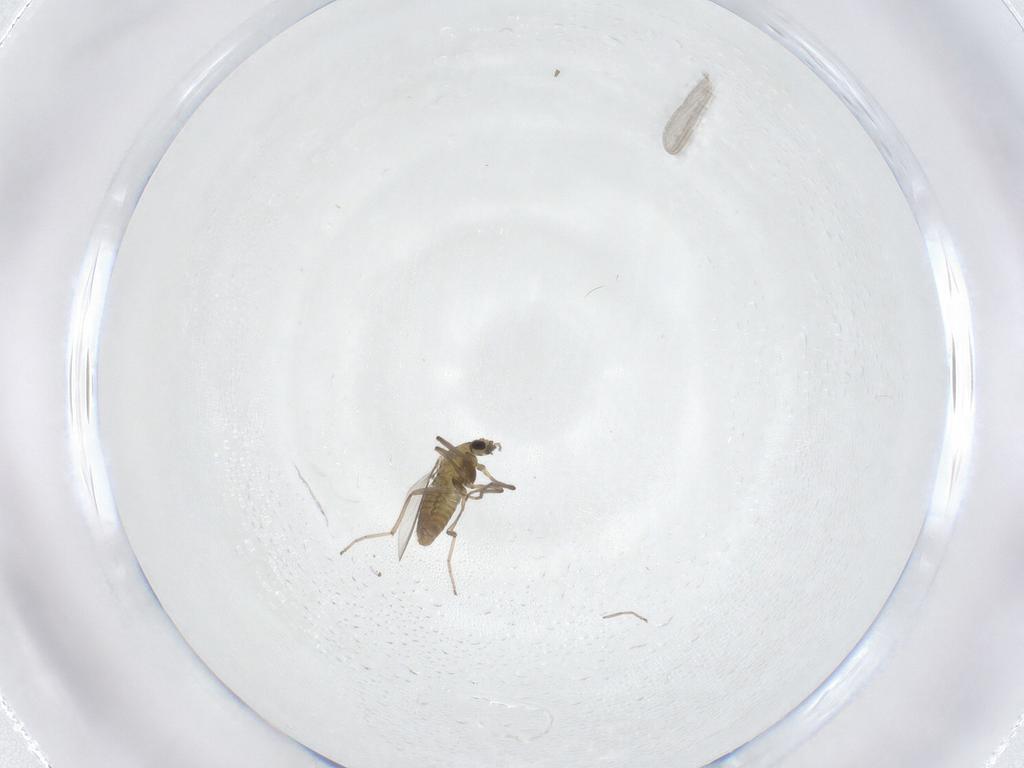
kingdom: Animalia
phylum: Arthropoda
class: Insecta
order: Diptera
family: Chironomidae
